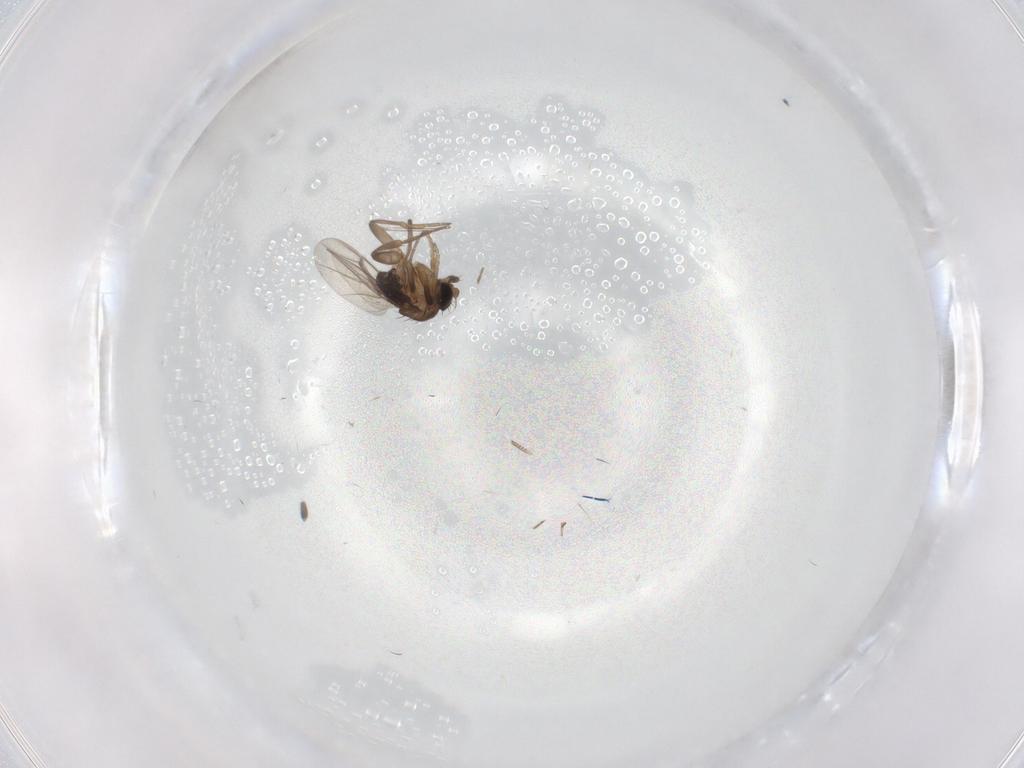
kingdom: Animalia
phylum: Arthropoda
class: Insecta
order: Diptera
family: Phoridae
